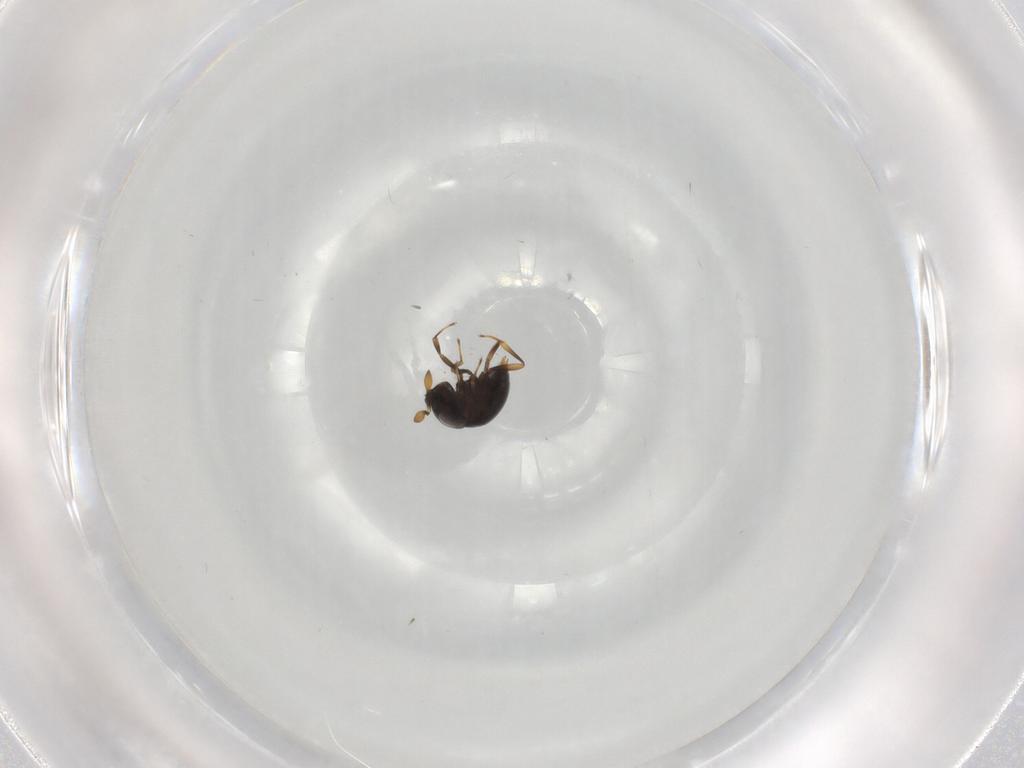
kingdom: Animalia
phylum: Arthropoda
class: Insecta
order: Hymenoptera
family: Scelionidae
